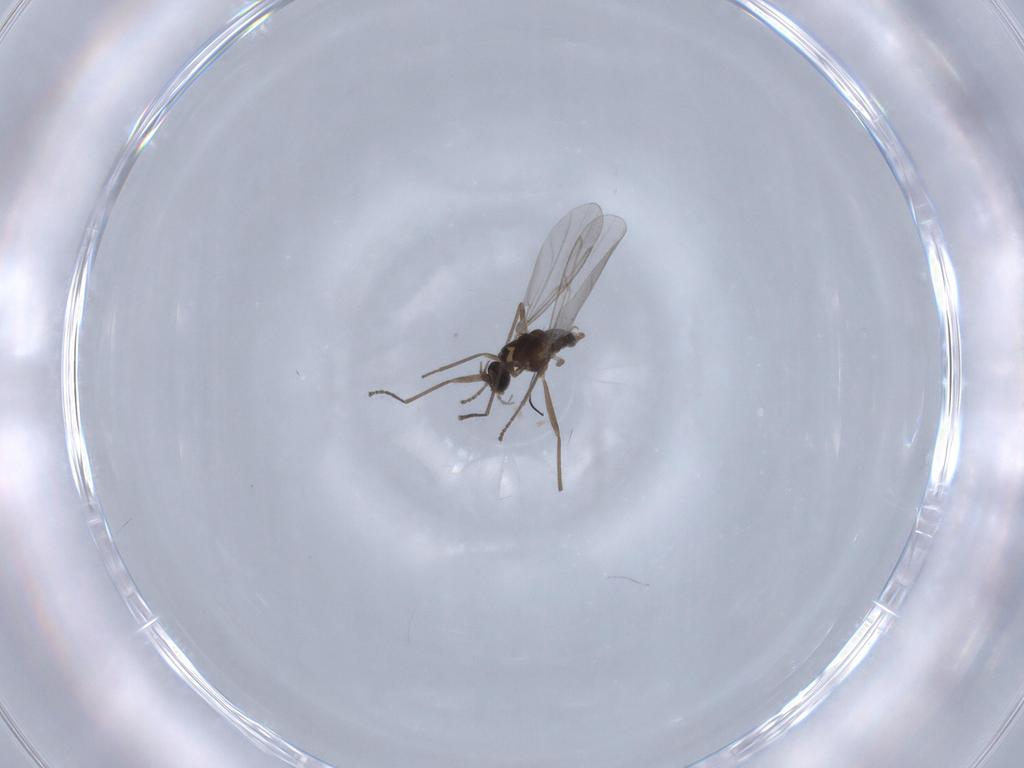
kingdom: Animalia
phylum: Arthropoda
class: Insecta
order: Diptera
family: Cecidomyiidae
